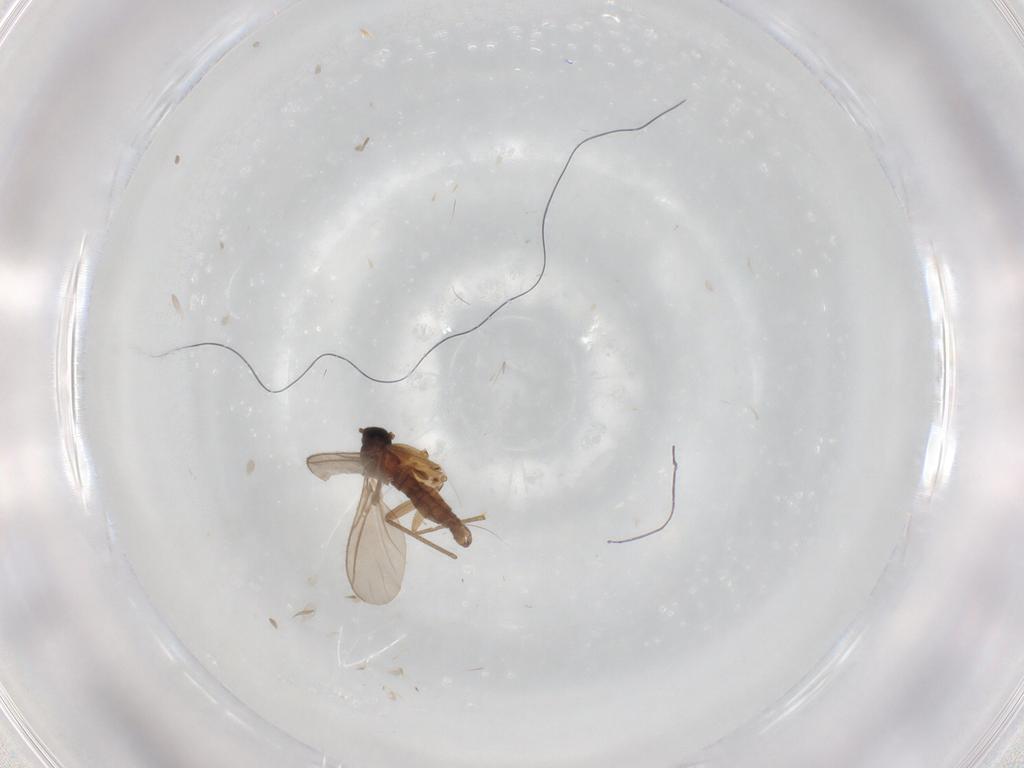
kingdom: Animalia
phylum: Arthropoda
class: Insecta
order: Diptera
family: Sciaridae
